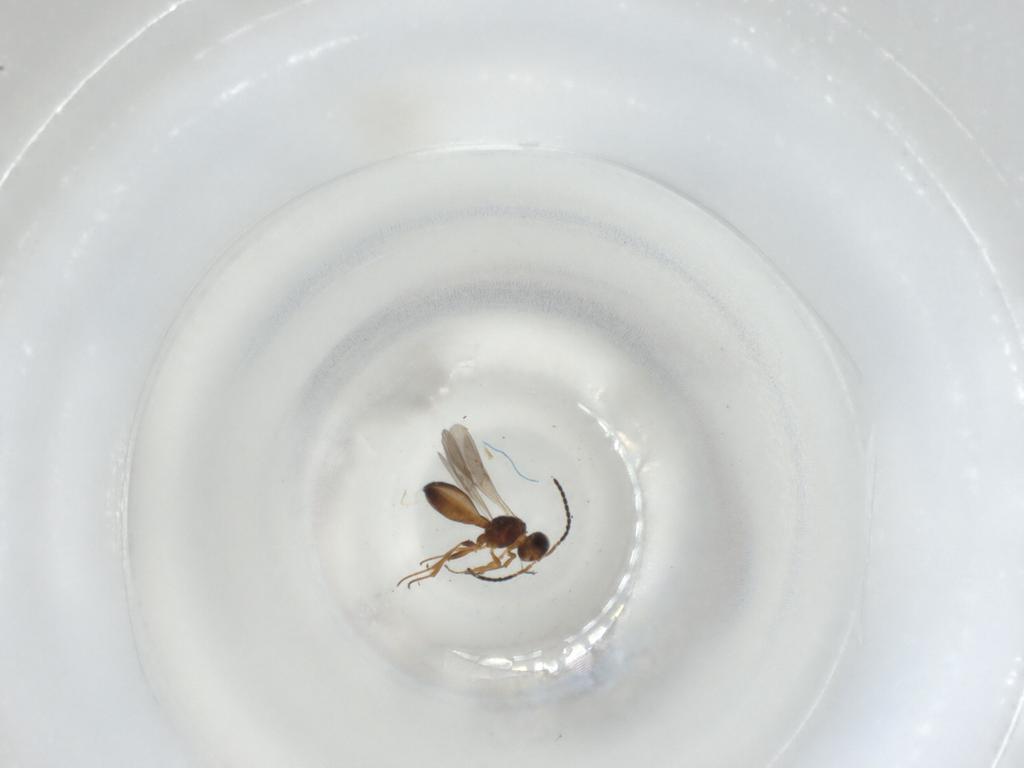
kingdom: Animalia
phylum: Arthropoda
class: Insecta
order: Hymenoptera
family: Scelionidae
